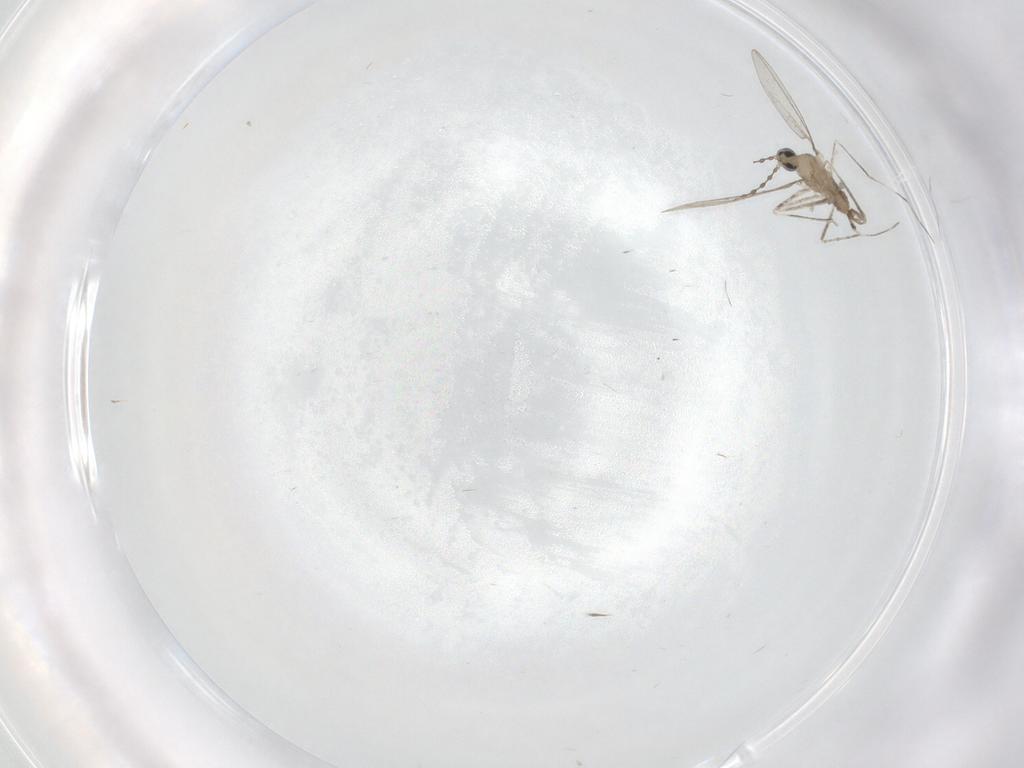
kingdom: Animalia
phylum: Arthropoda
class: Insecta
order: Diptera
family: Cecidomyiidae
